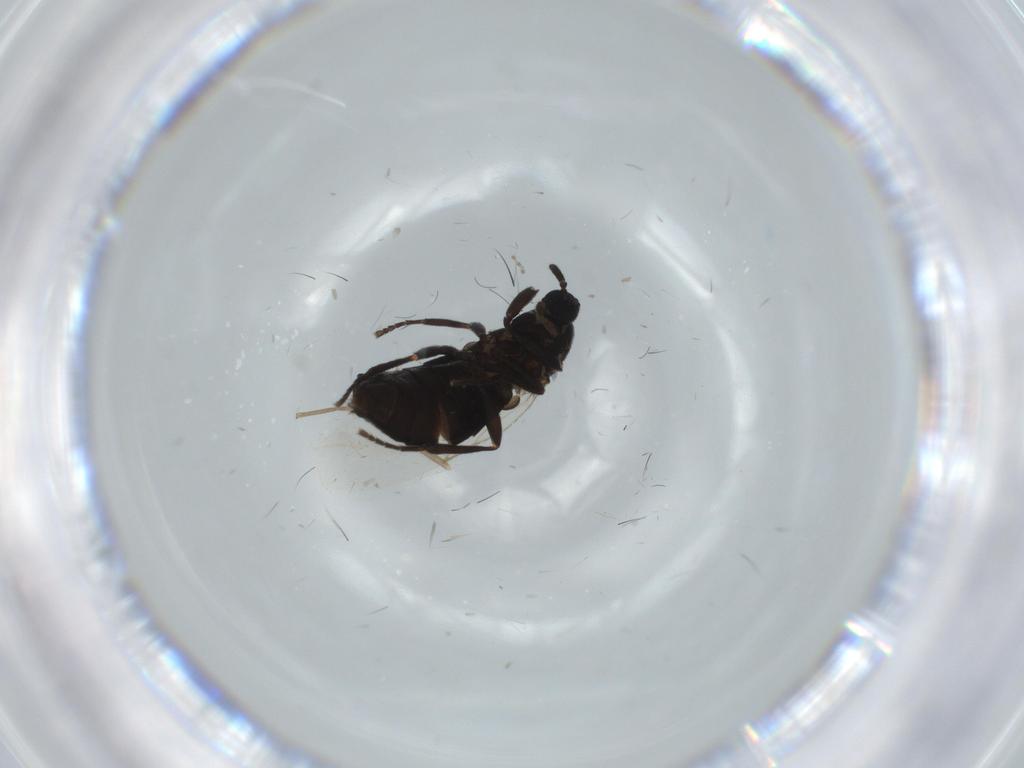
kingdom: Animalia
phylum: Arthropoda
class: Insecta
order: Diptera
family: Scatopsidae
